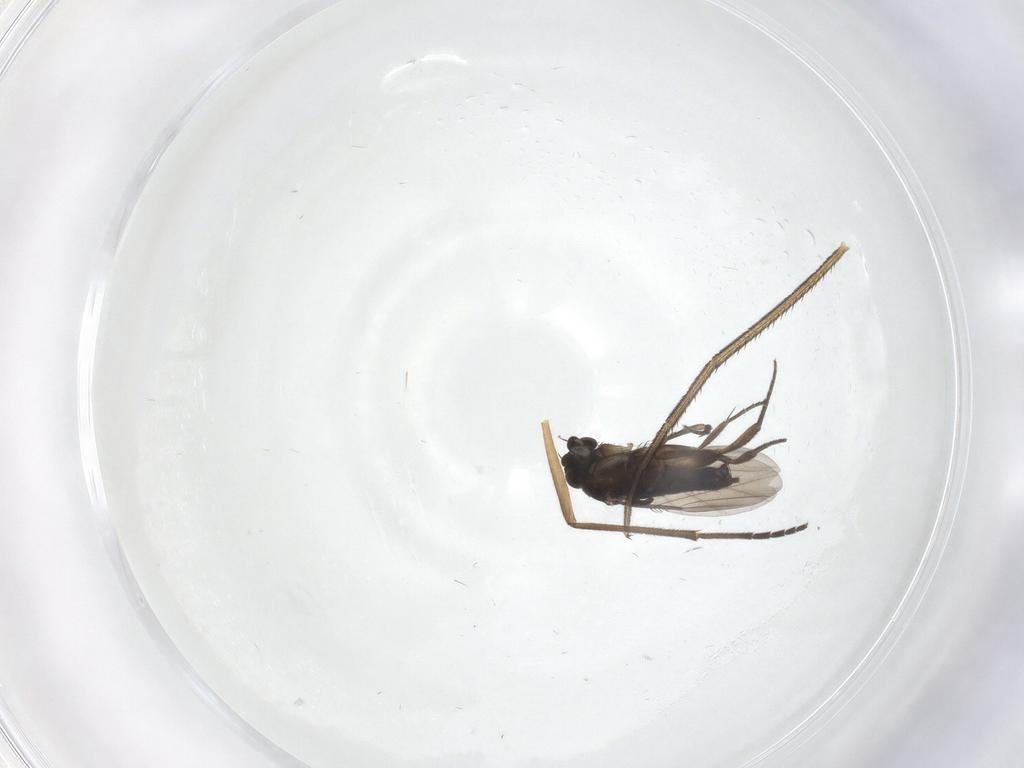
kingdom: Animalia
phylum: Arthropoda
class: Insecta
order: Diptera
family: Phoridae
